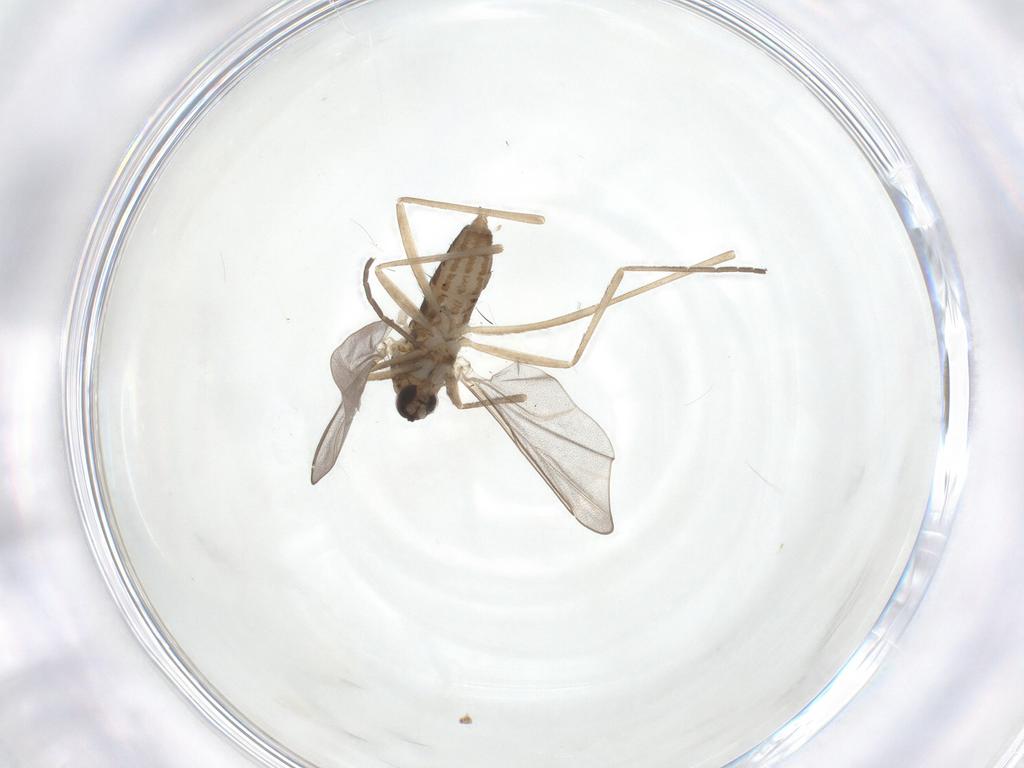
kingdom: Animalia
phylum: Arthropoda
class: Insecta
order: Diptera
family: Cecidomyiidae
